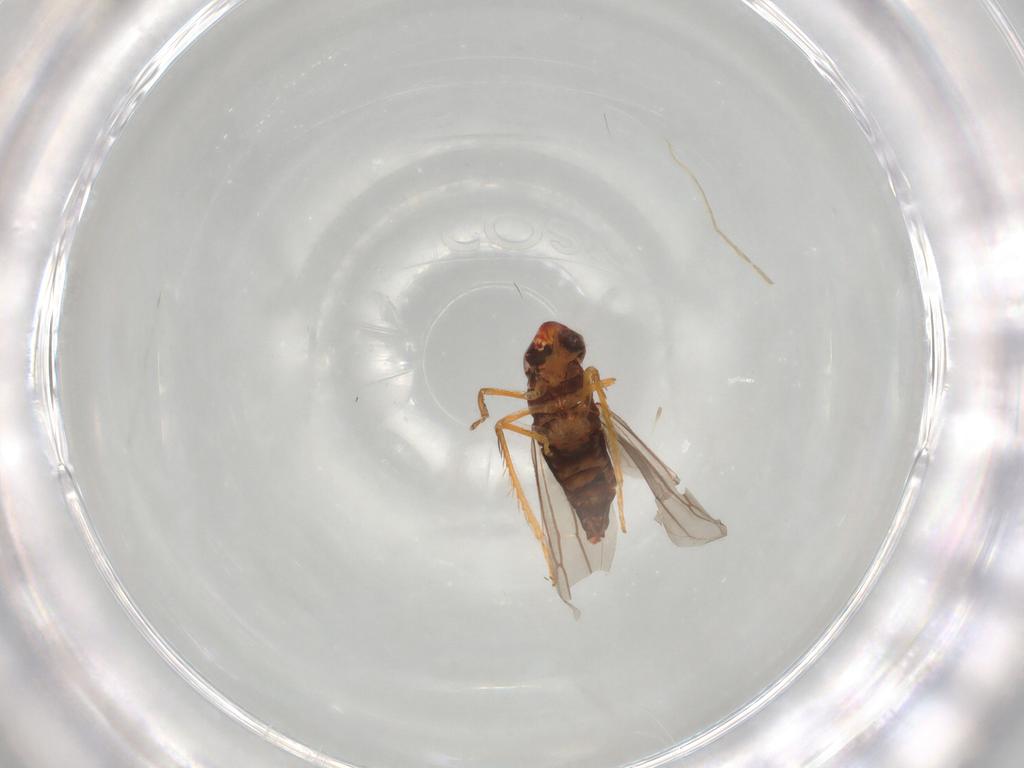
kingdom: Animalia
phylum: Arthropoda
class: Insecta
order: Hemiptera
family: Cicadellidae
